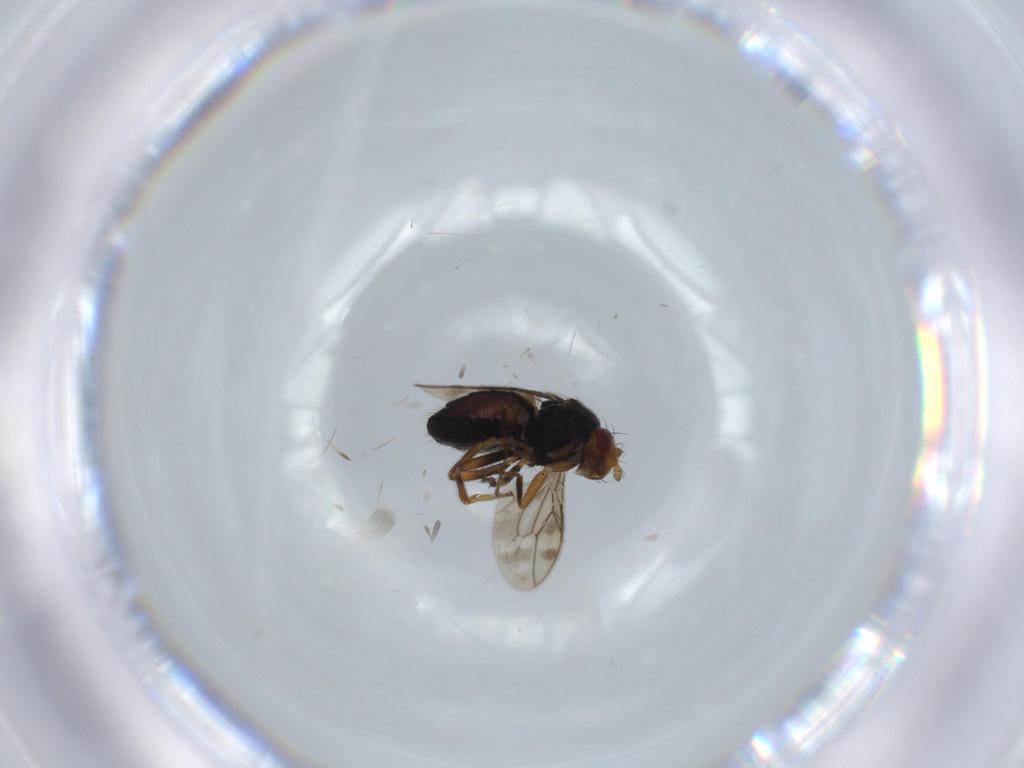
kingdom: Animalia
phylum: Arthropoda
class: Insecta
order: Diptera
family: Sphaeroceridae
